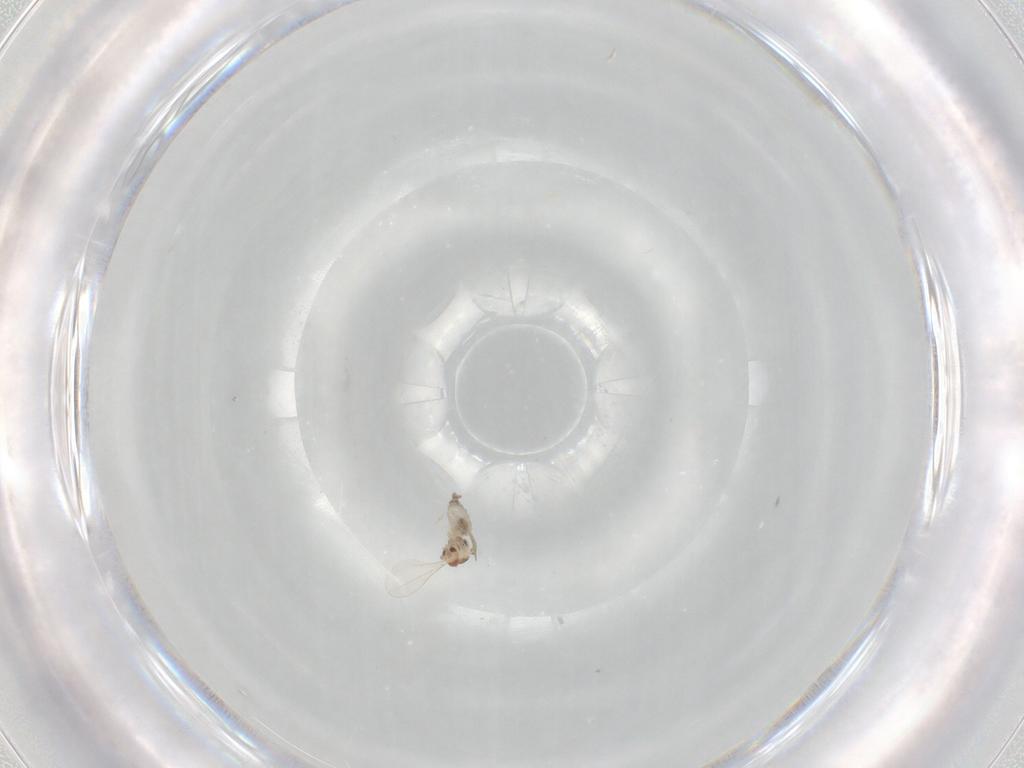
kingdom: Animalia
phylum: Arthropoda
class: Insecta
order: Diptera
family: Cecidomyiidae
